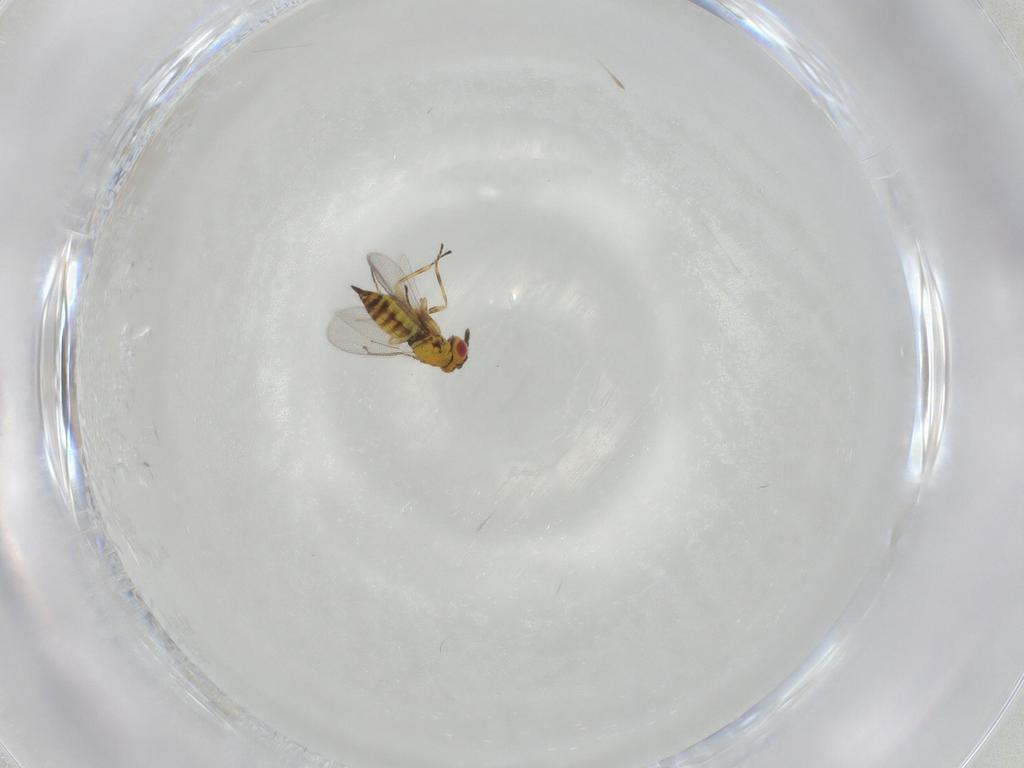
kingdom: Animalia
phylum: Arthropoda
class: Insecta
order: Hymenoptera
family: Eulophidae
